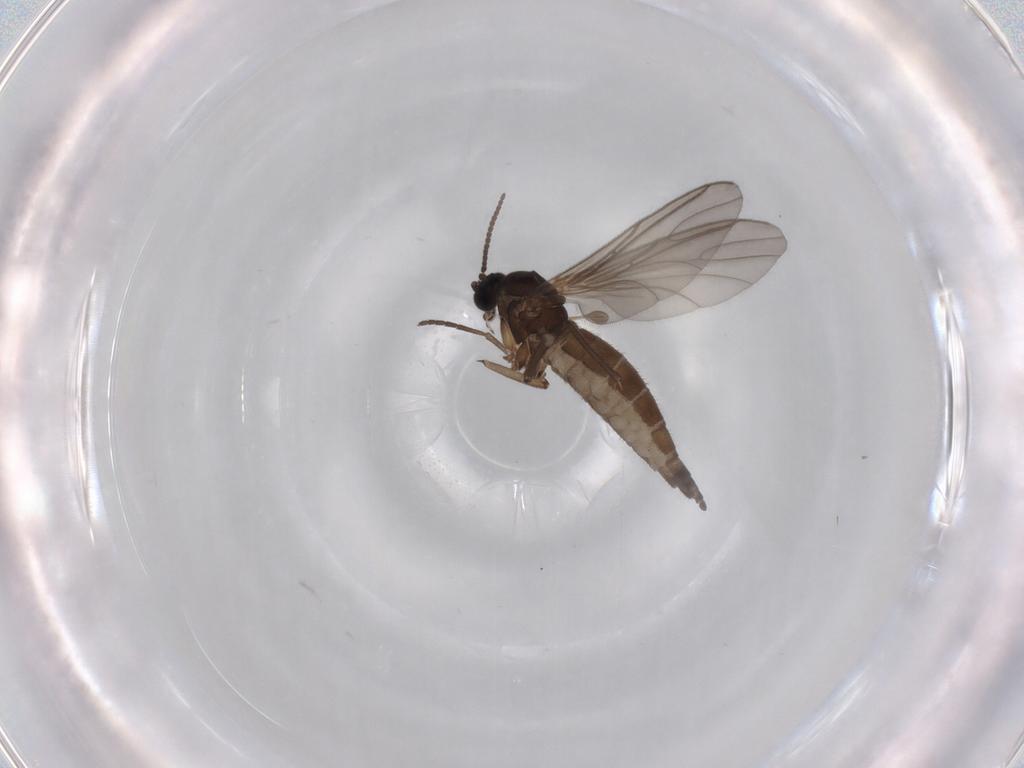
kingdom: Animalia
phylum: Arthropoda
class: Insecta
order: Diptera
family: Sciaridae
